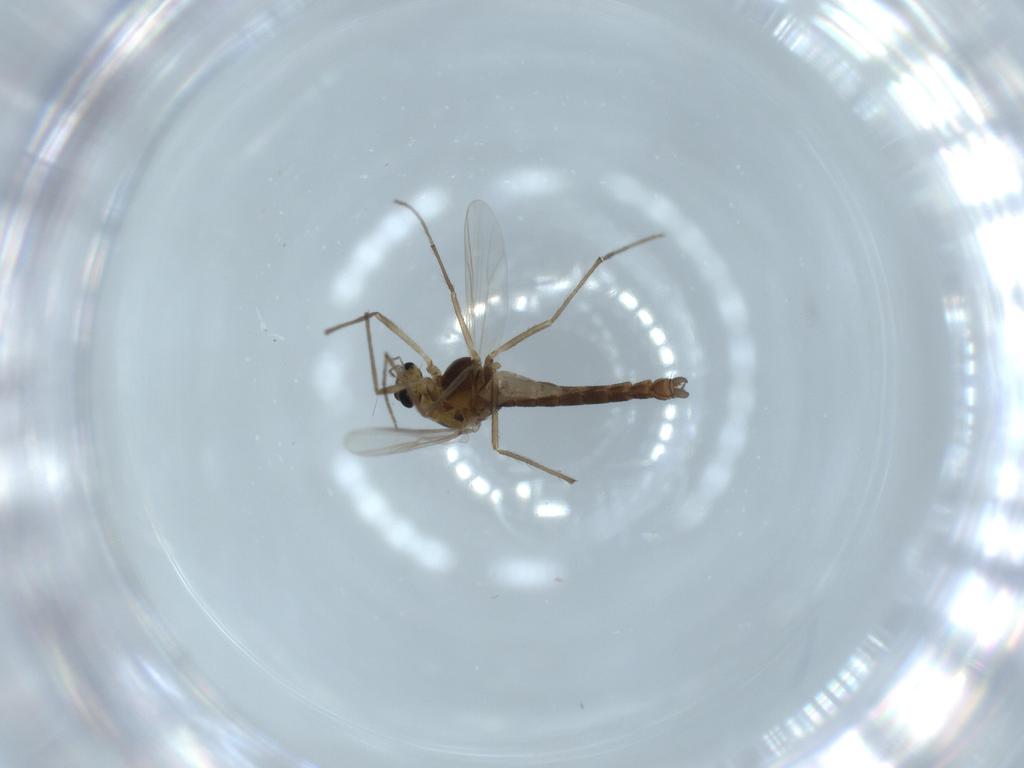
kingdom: Animalia
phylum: Arthropoda
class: Insecta
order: Diptera
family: Chironomidae
